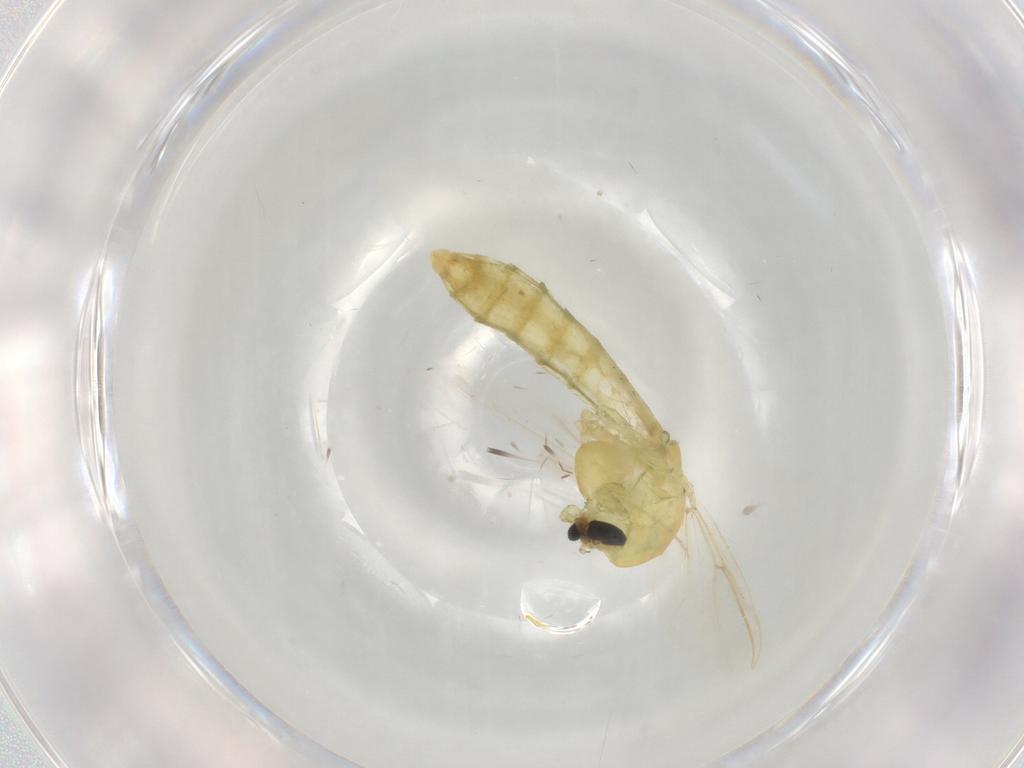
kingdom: Animalia
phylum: Arthropoda
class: Insecta
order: Diptera
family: Chironomidae
